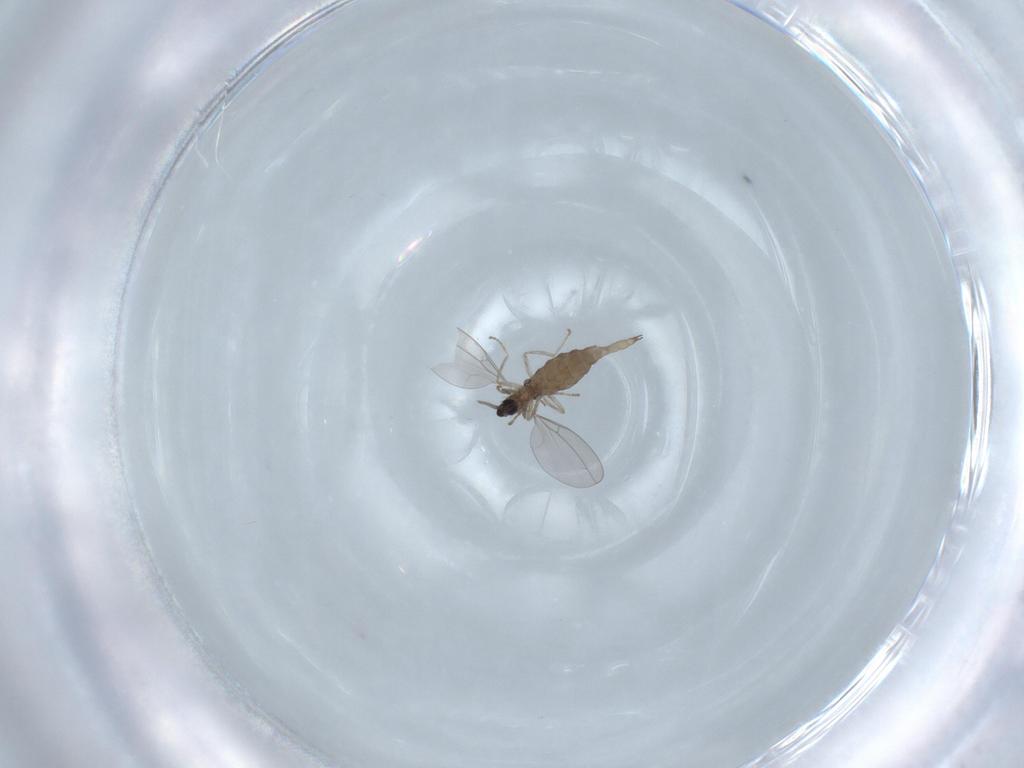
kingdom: Animalia
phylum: Arthropoda
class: Insecta
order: Diptera
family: Cecidomyiidae
